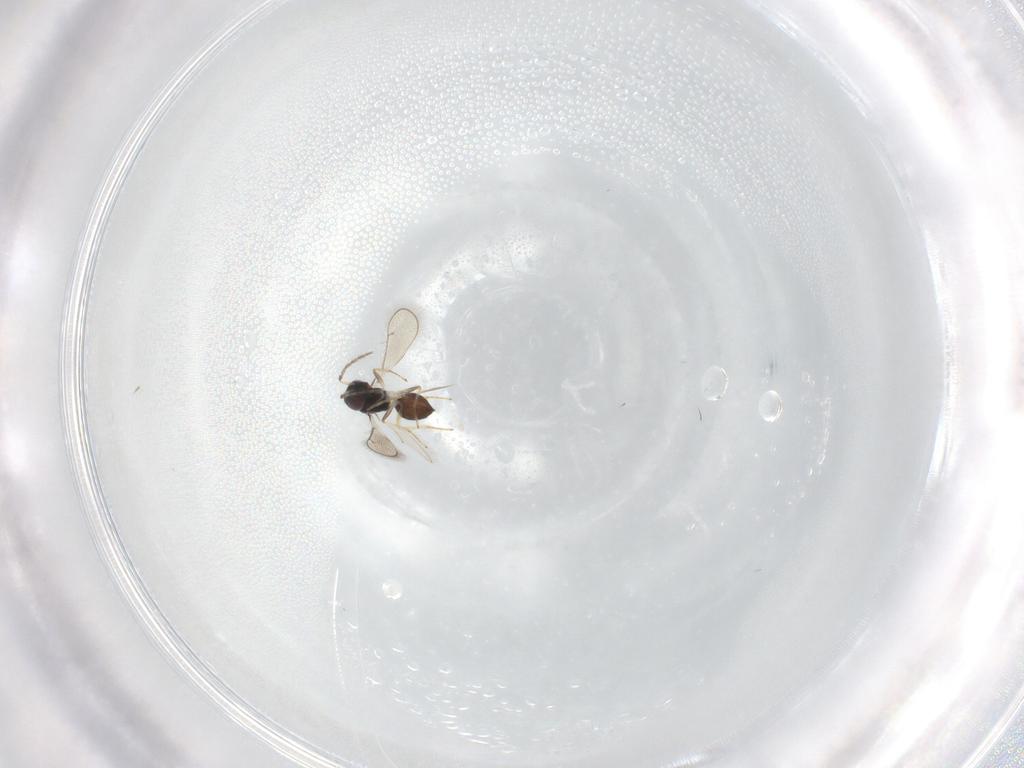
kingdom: Animalia
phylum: Arthropoda
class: Insecta
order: Hymenoptera
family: Eulophidae
